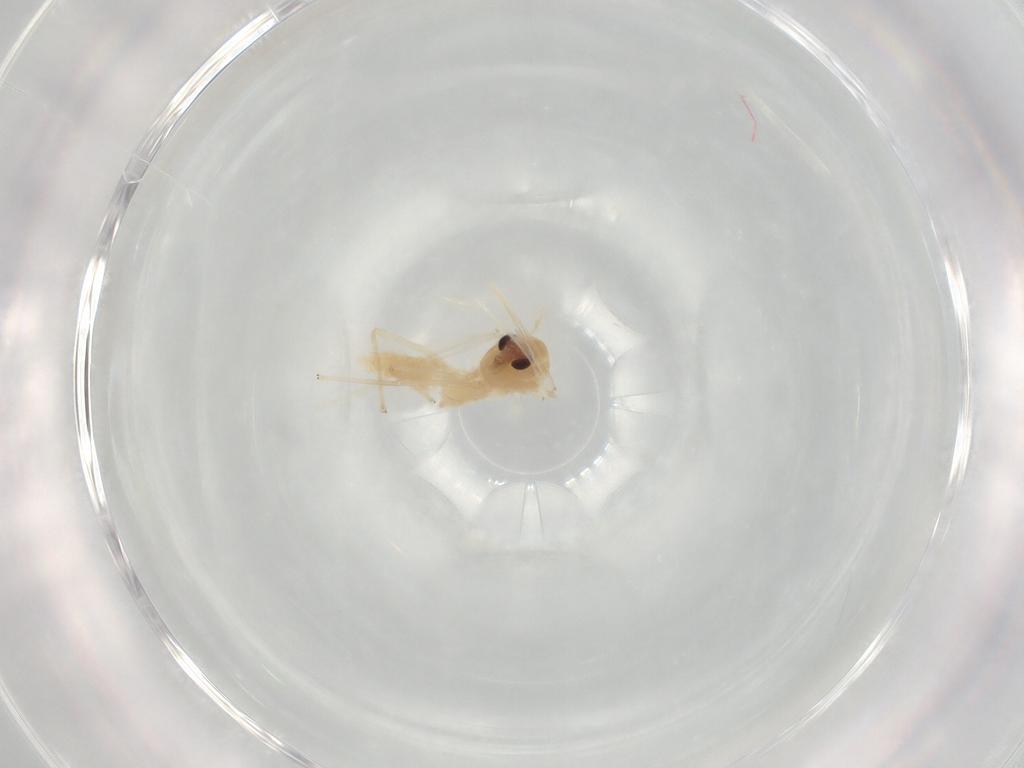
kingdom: Animalia
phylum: Arthropoda
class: Insecta
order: Diptera
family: Chironomidae
